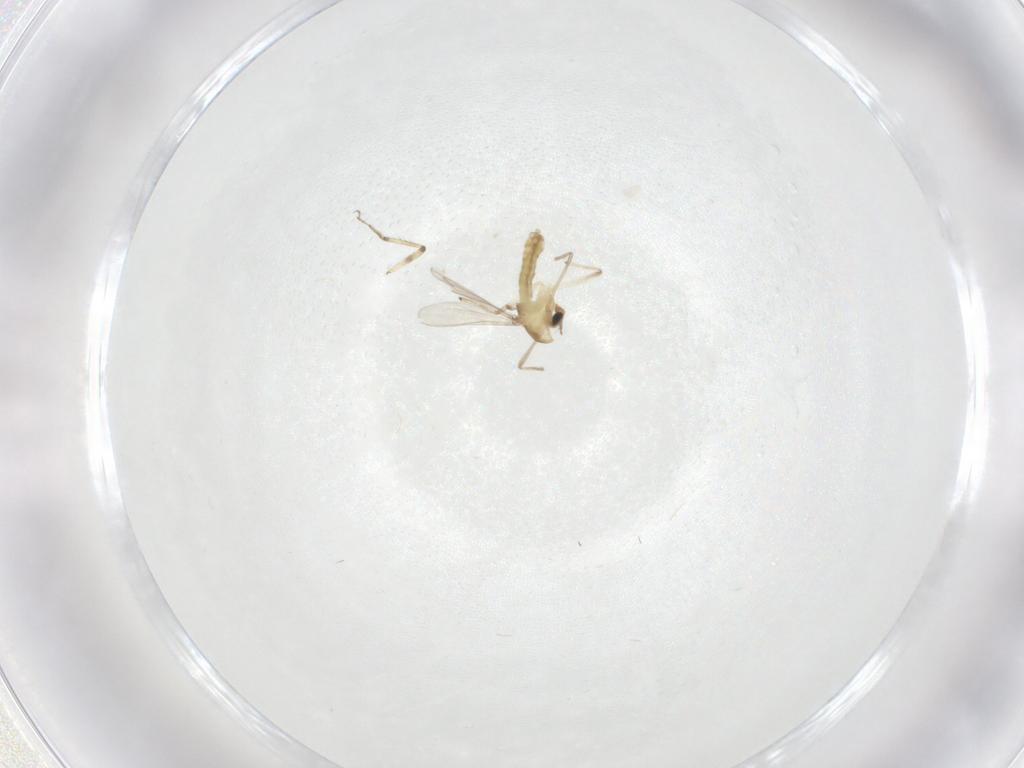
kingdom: Animalia
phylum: Arthropoda
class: Insecta
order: Diptera
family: Chironomidae
